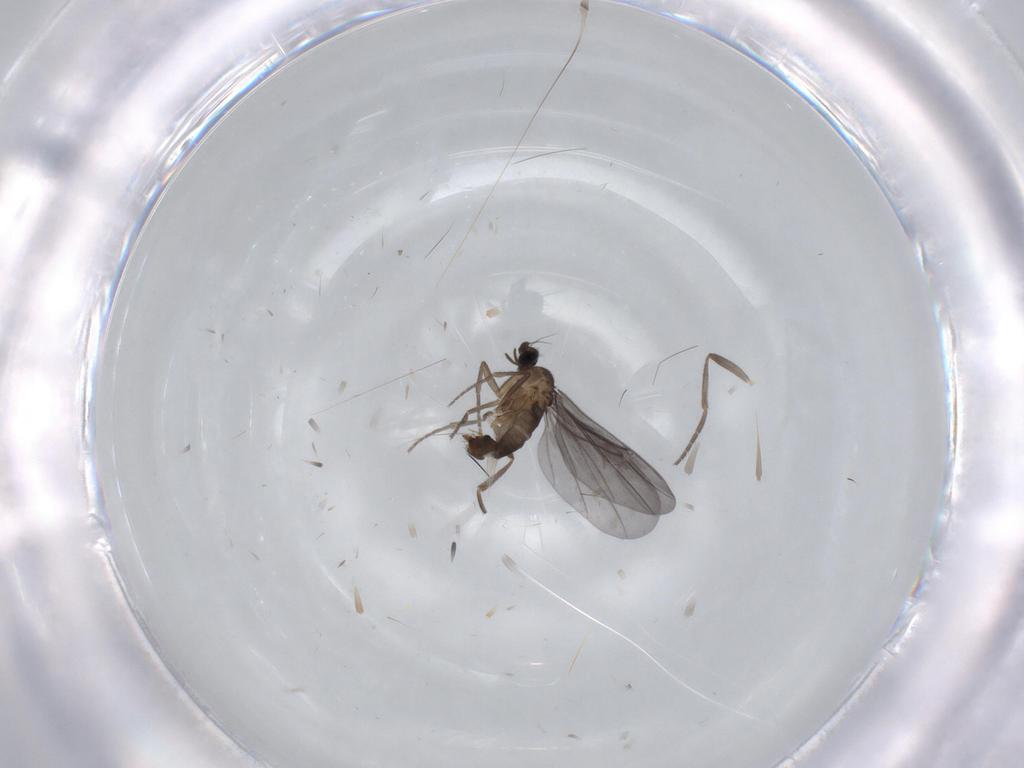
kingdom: Animalia
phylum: Arthropoda
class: Insecta
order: Diptera
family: Phoridae
